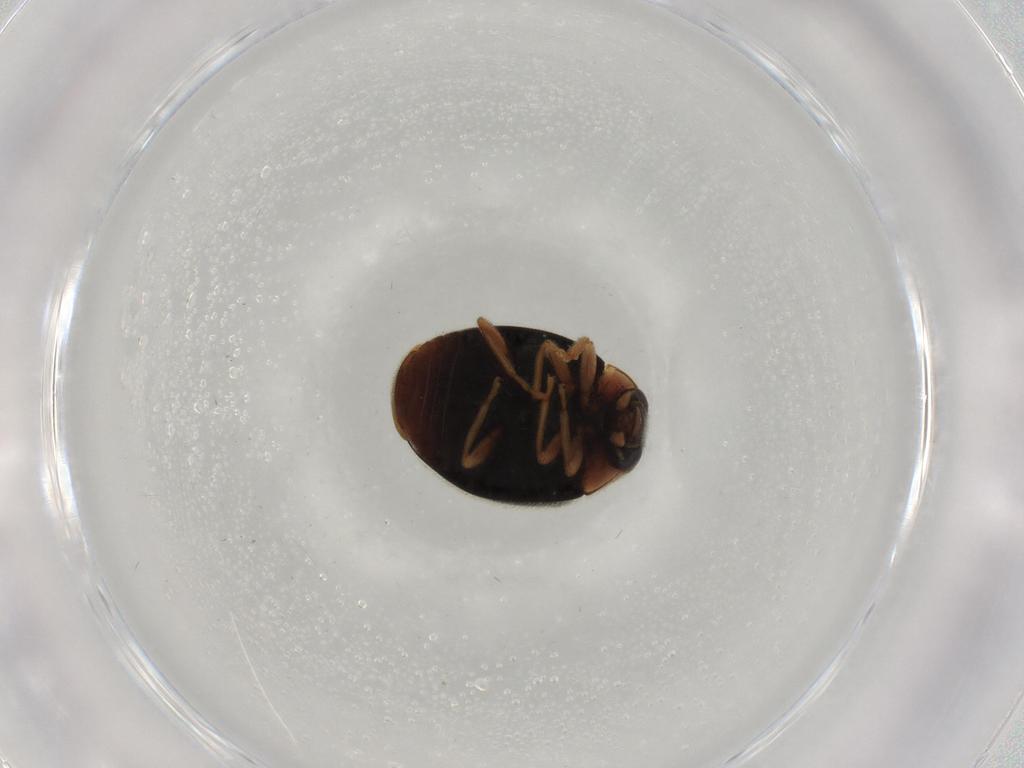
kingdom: Animalia
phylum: Arthropoda
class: Insecta
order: Coleoptera
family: Coccinellidae
